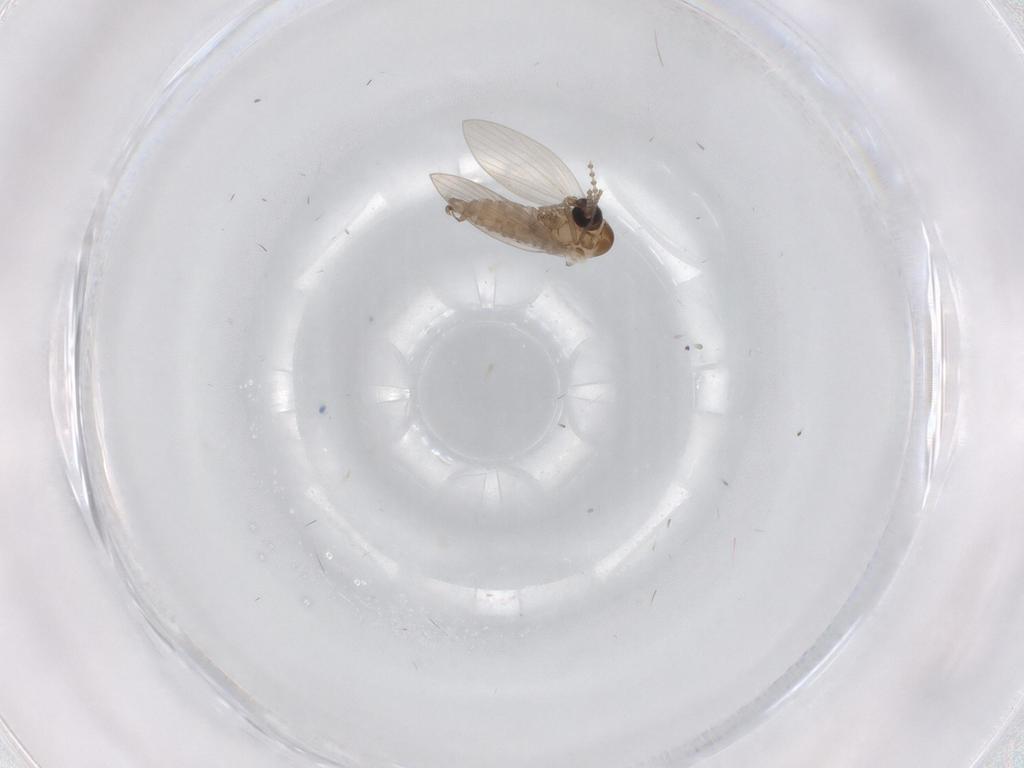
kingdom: Animalia
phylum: Arthropoda
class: Insecta
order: Diptera
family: Psychodidae
